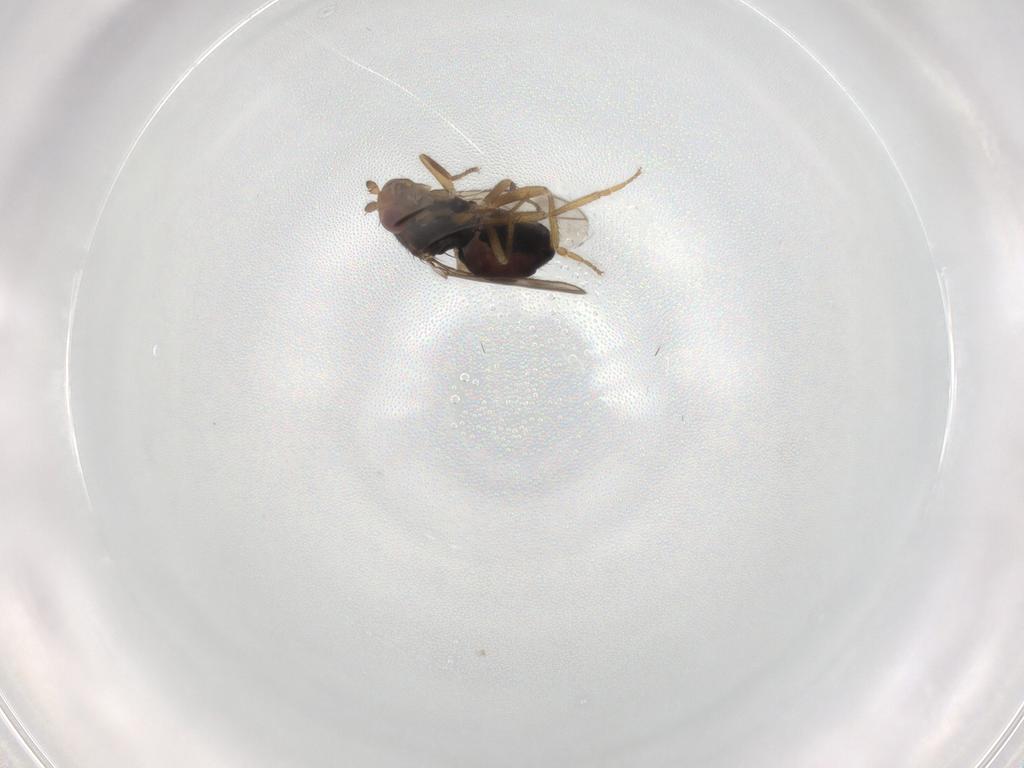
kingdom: Animalia
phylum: Arthropoda
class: Insecta
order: Diptera
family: Sphaeroceridae
